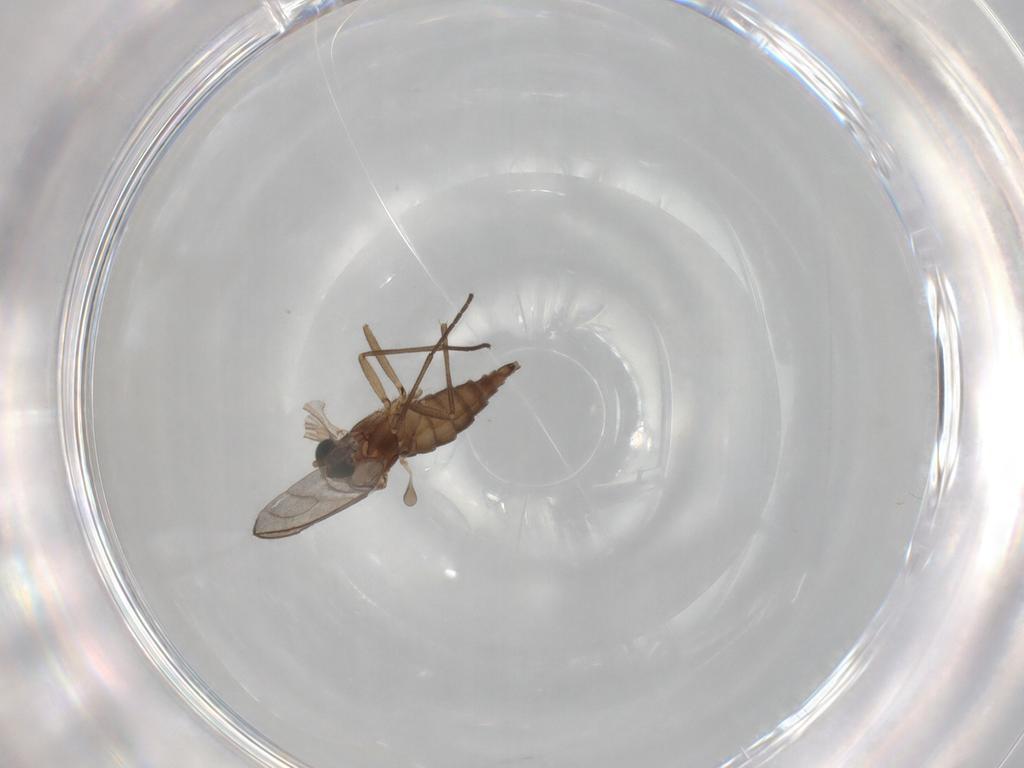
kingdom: Animalia
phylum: Arthropoda
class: Insecta
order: Diptera
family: Sciaridae
